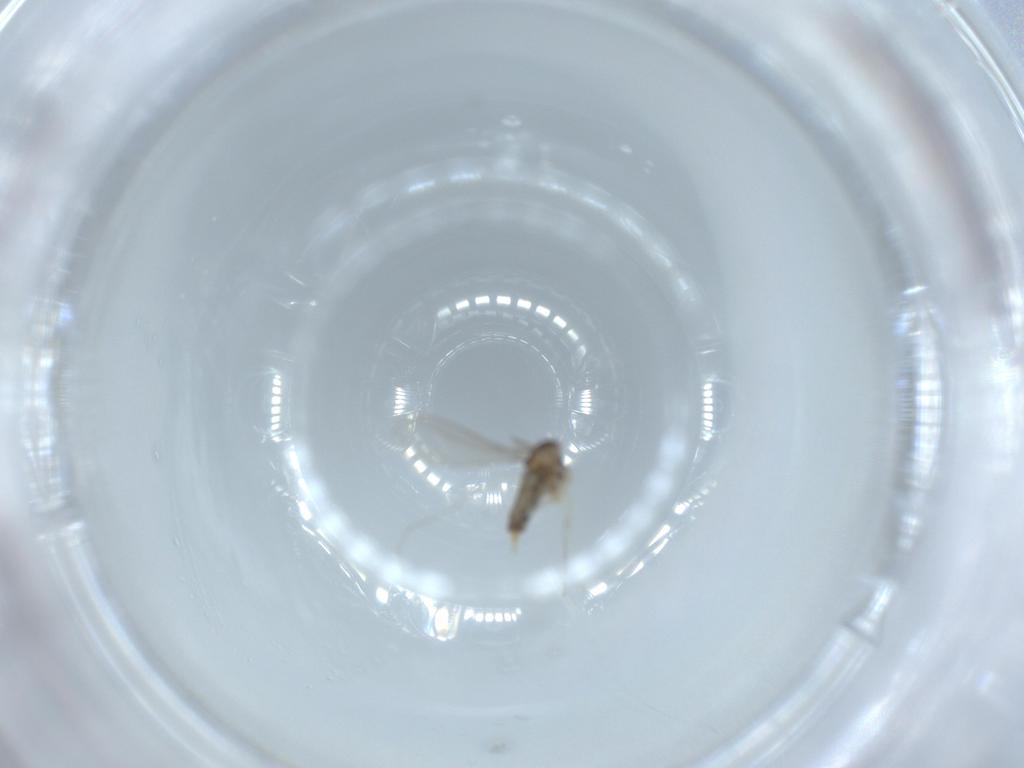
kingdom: Animalia
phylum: Arthropoda
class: Insecta
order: Diptera
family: Cecidomyiidae
